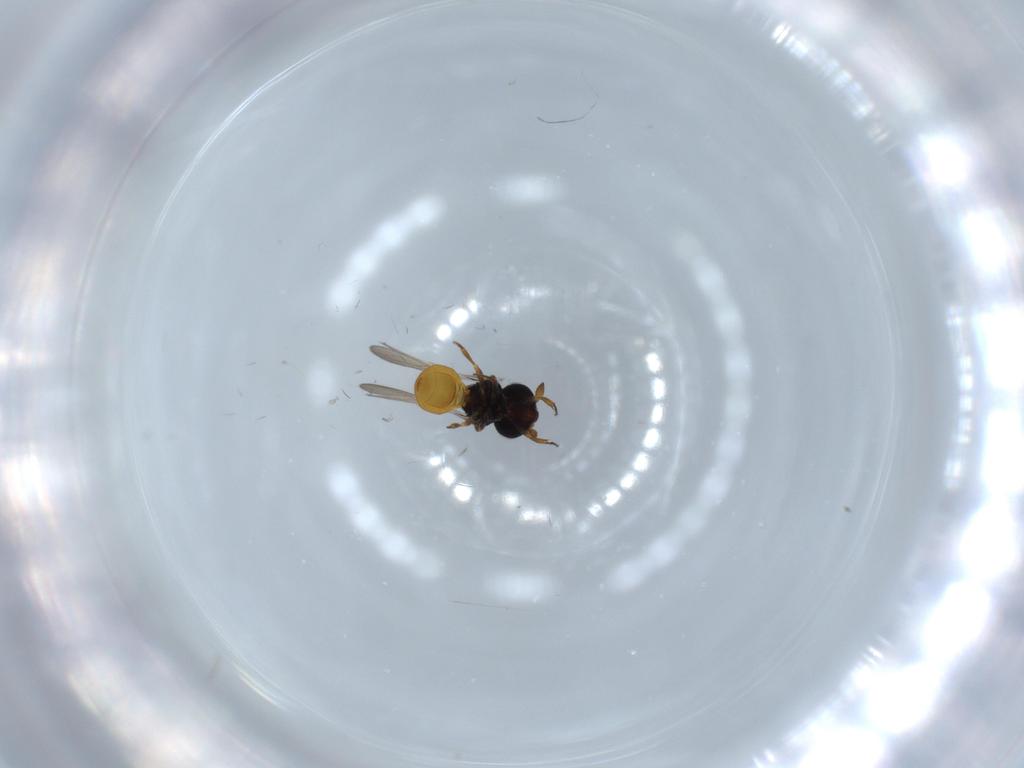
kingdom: Animalia
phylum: Arthropoda
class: Insecta
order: Hymenoptera
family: Scelionidae
